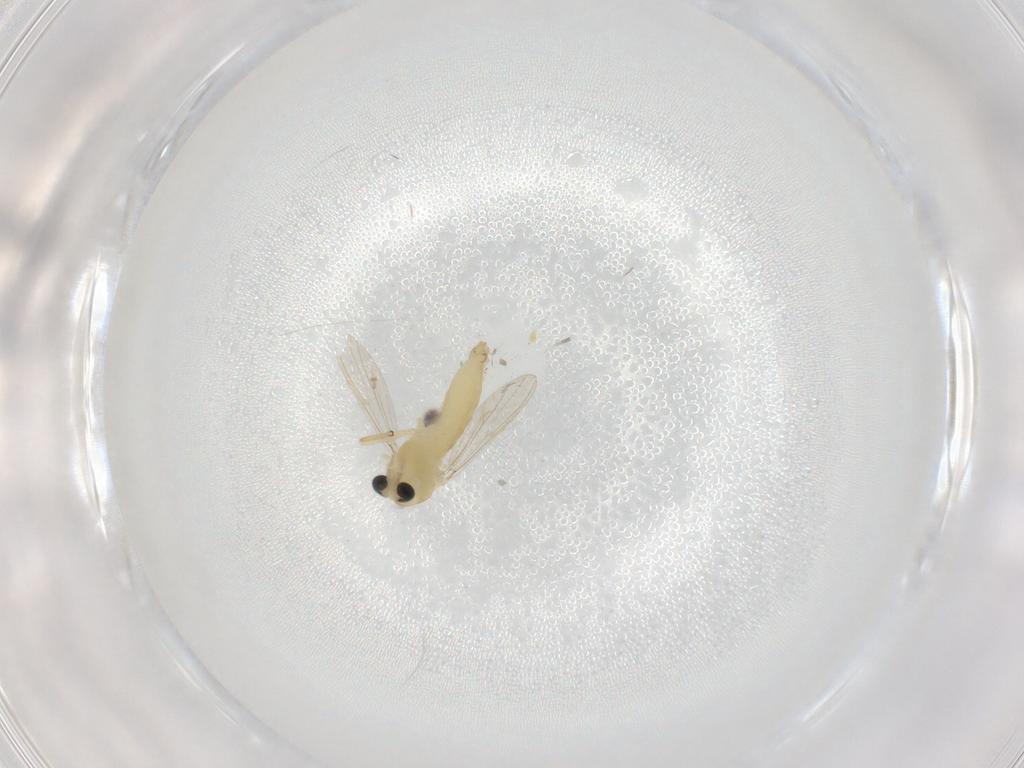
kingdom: Animalia
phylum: Arthropoda
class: Insecta
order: Diptera
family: Chironomidae
